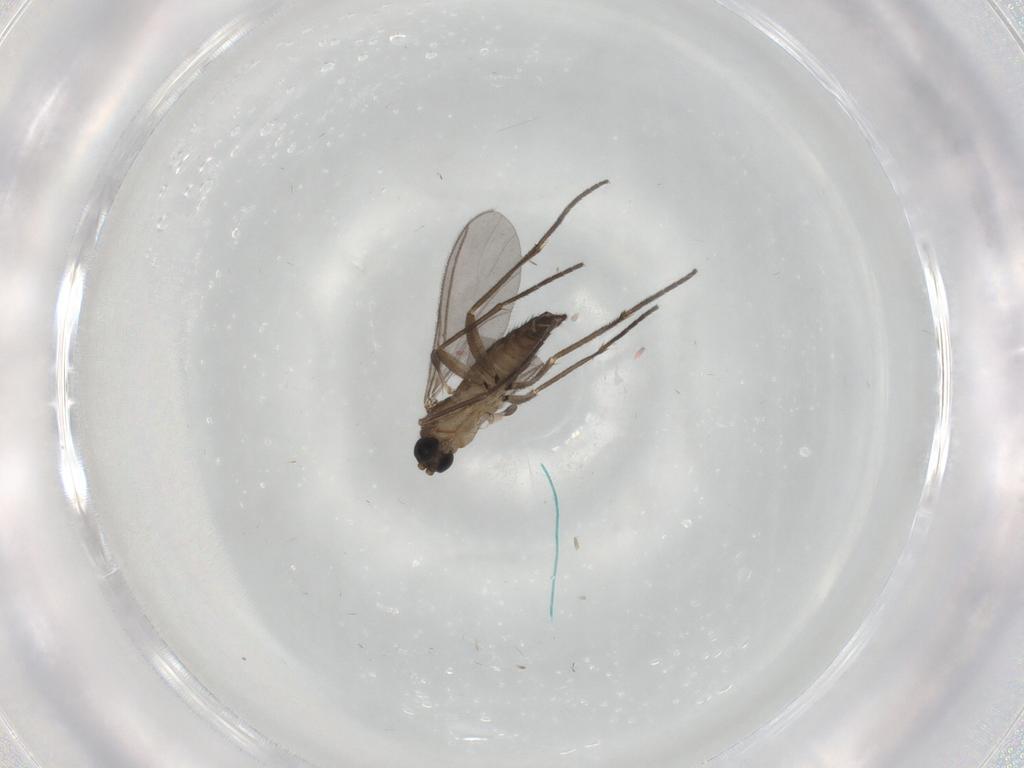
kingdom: Animalia
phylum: Arthropoda
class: Insecta
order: Diptera
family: Sciaridae
